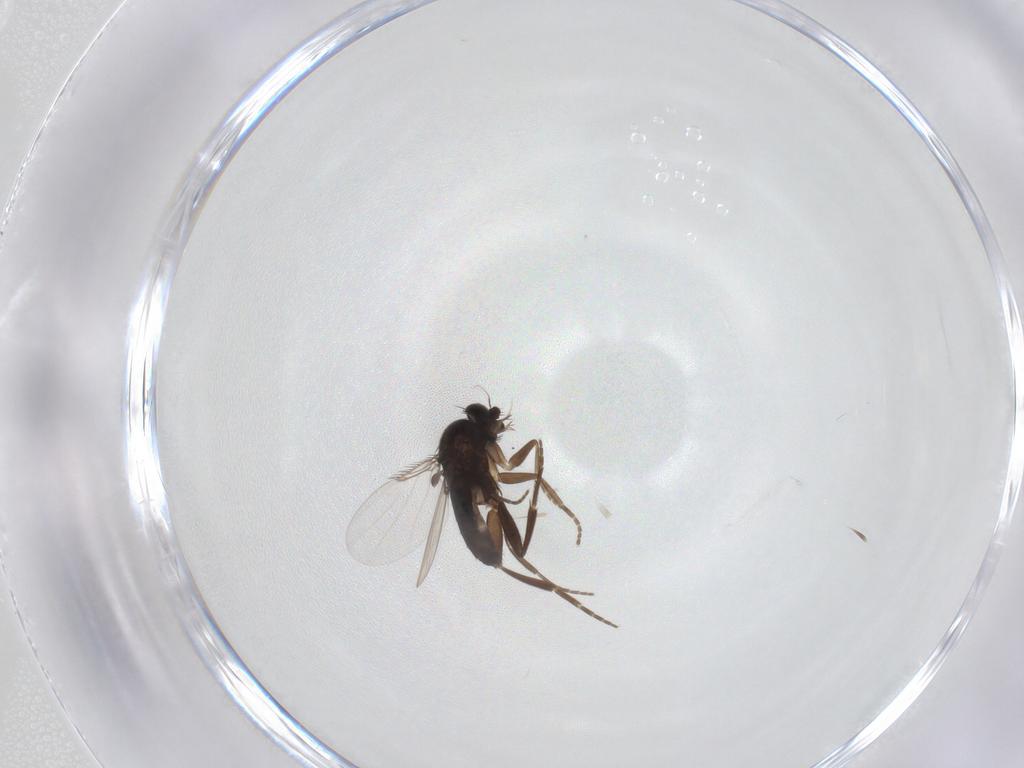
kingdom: Animalia
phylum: Arthropoda
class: Insecta
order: Diptera
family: Phoridae
